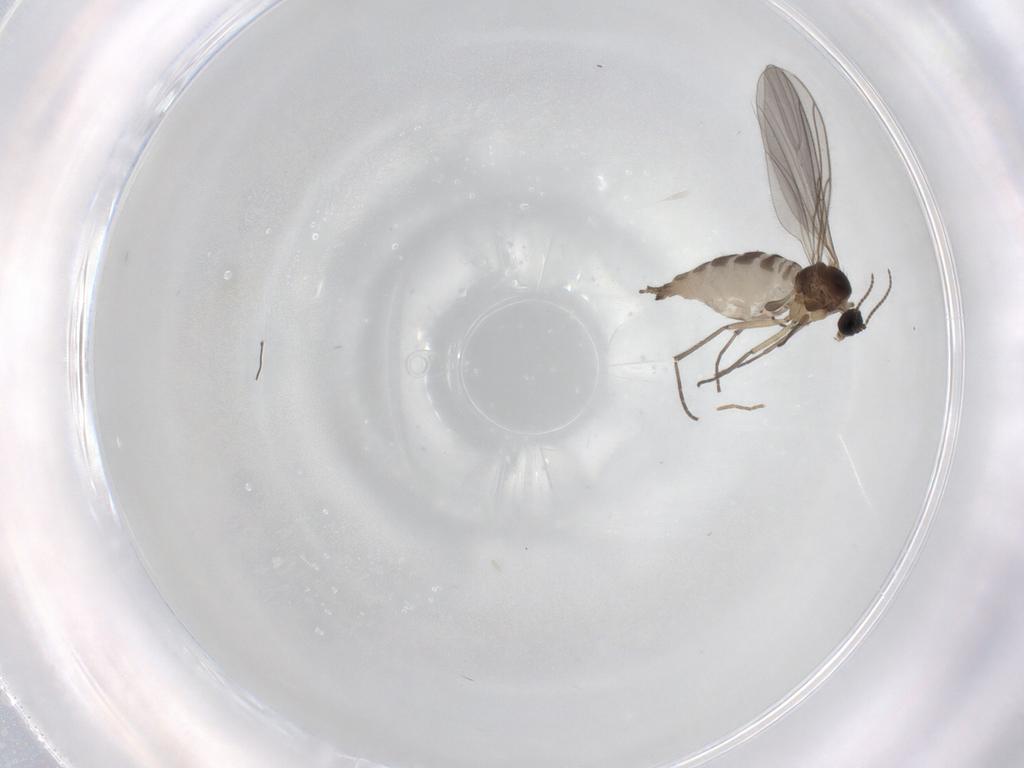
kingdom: Animalia
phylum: Arthropoda
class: Insecta
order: Diptera
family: Sciaridae
